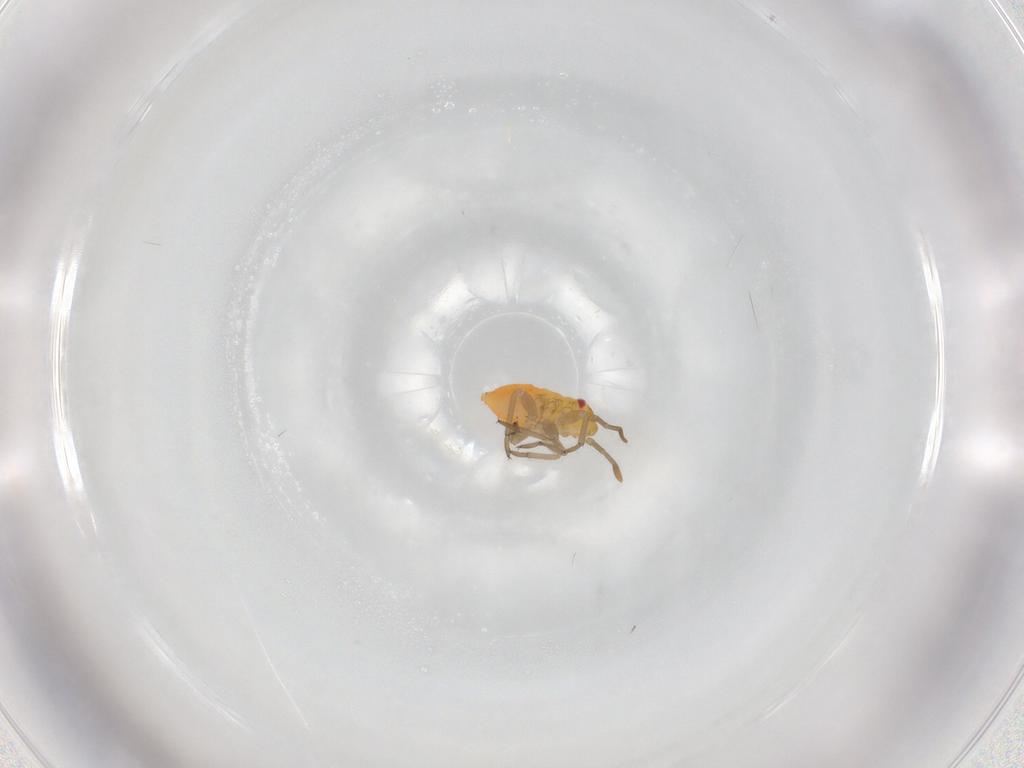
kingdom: Animalia
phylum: Arthropoda
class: Insecta
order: Hemiptera
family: Miridae
